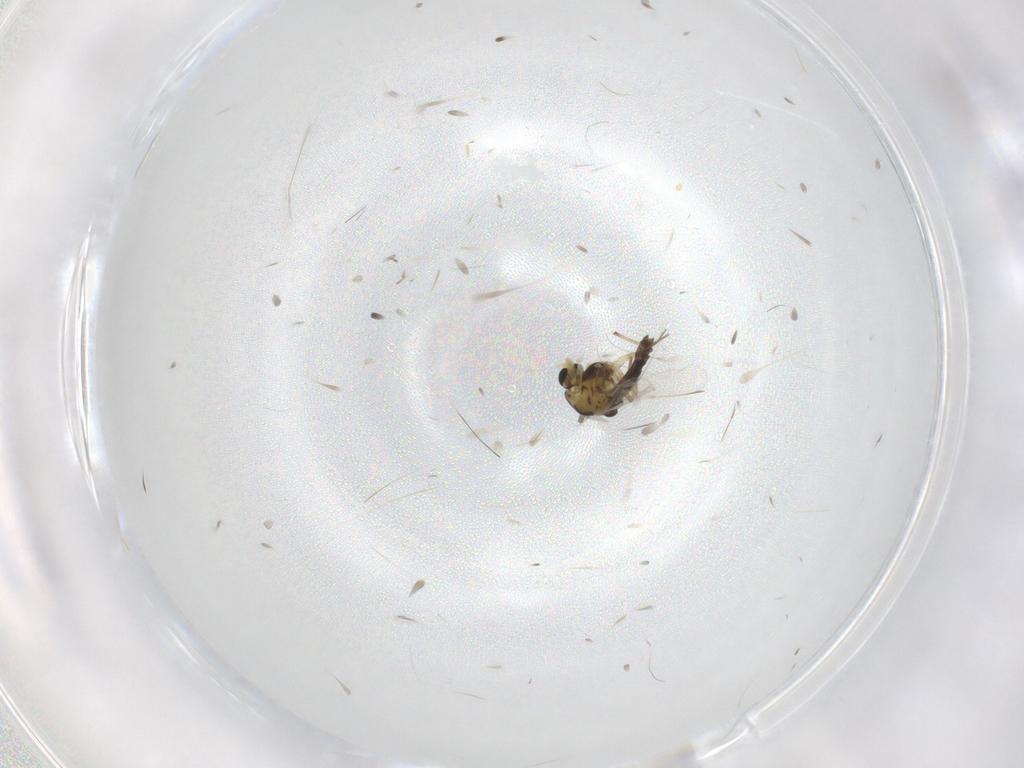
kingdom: Animalia
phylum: Arthropoda
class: Insecta
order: Diptera
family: Chironomidae
